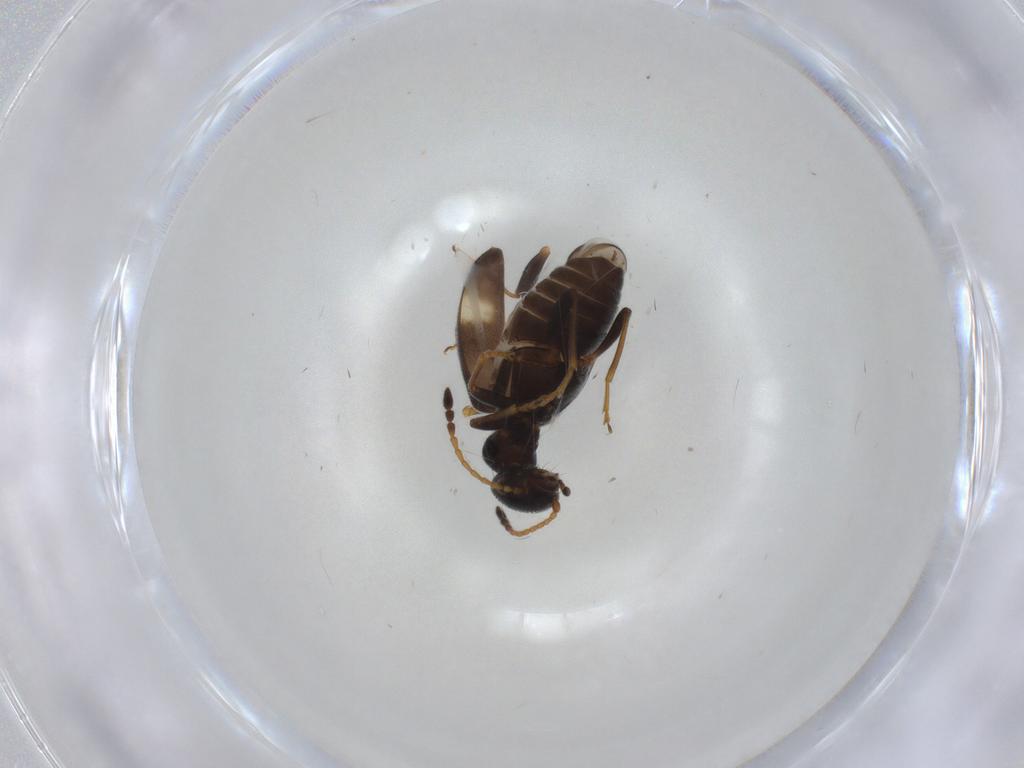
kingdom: Animalia
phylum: Arthropoda
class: Insecta
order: Coleoptera
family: Anthicidae
